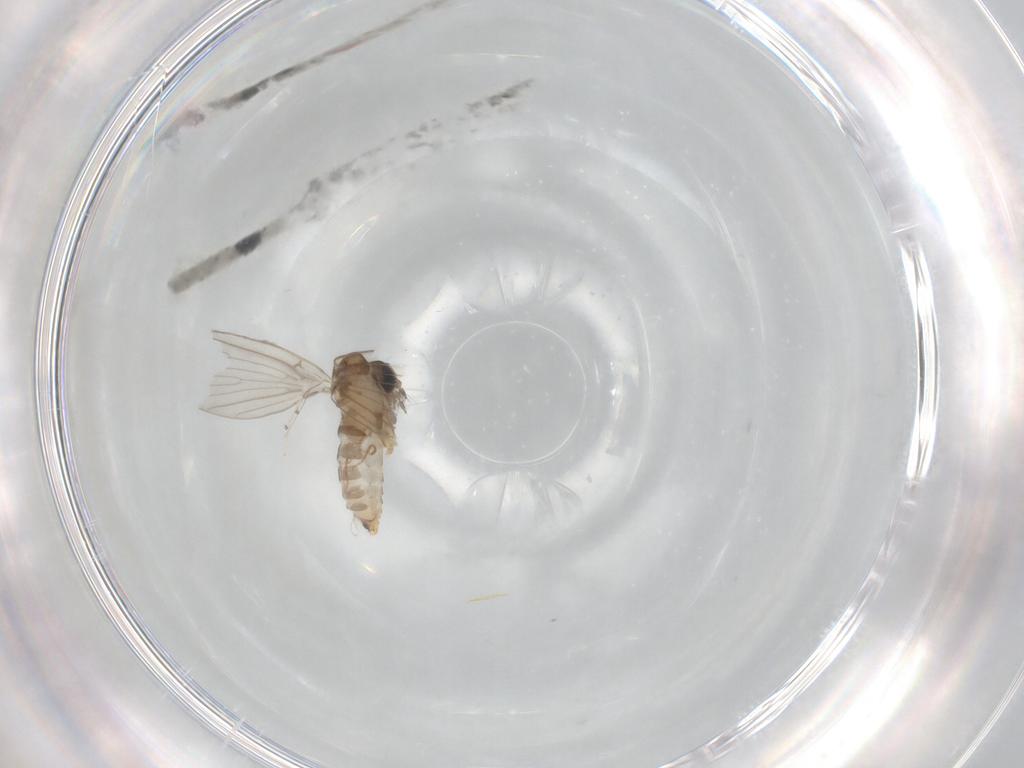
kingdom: Animalia
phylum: Arthropoda
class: Insecta
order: Diptera
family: Psychodidae
